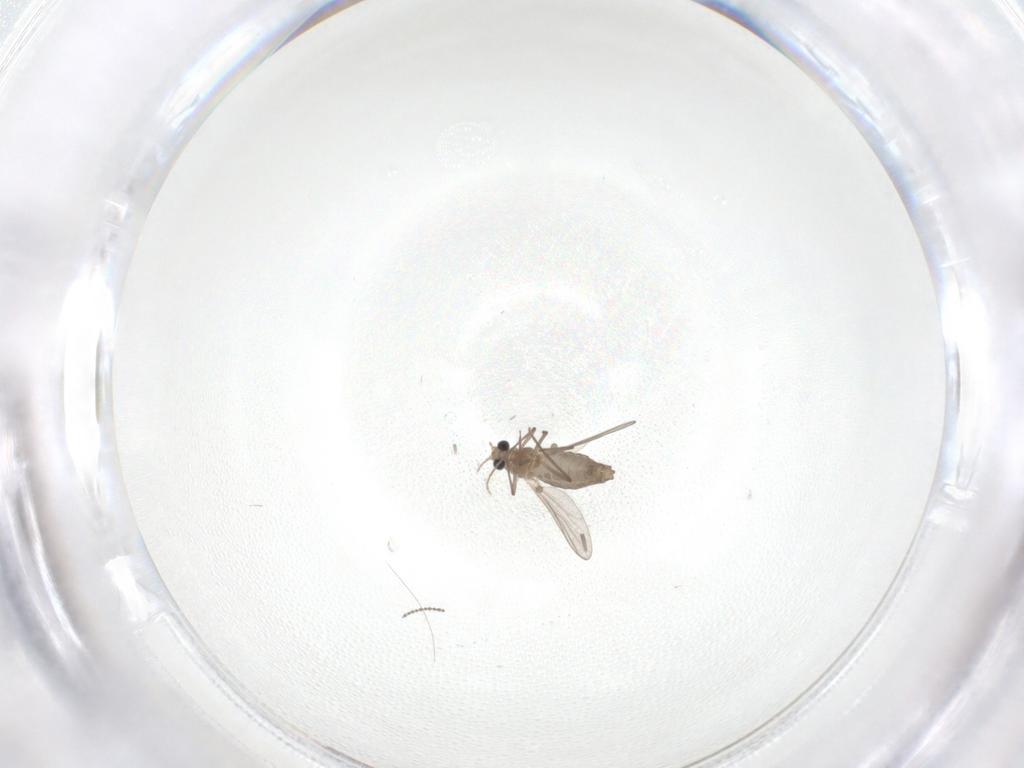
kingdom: Animalia
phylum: Arthropoda
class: Insecta
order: Diptera
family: Chironomidae
